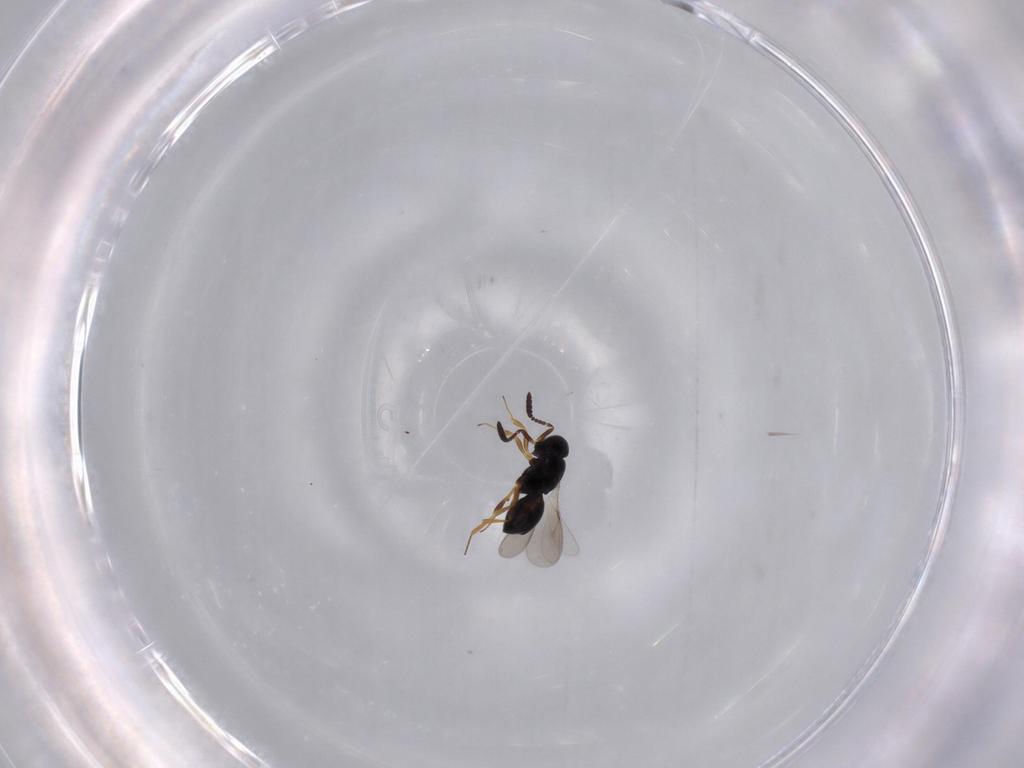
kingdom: Animalia
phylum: Arthropoda
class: Insecta
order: Hymenoptera
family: Scelionidae
